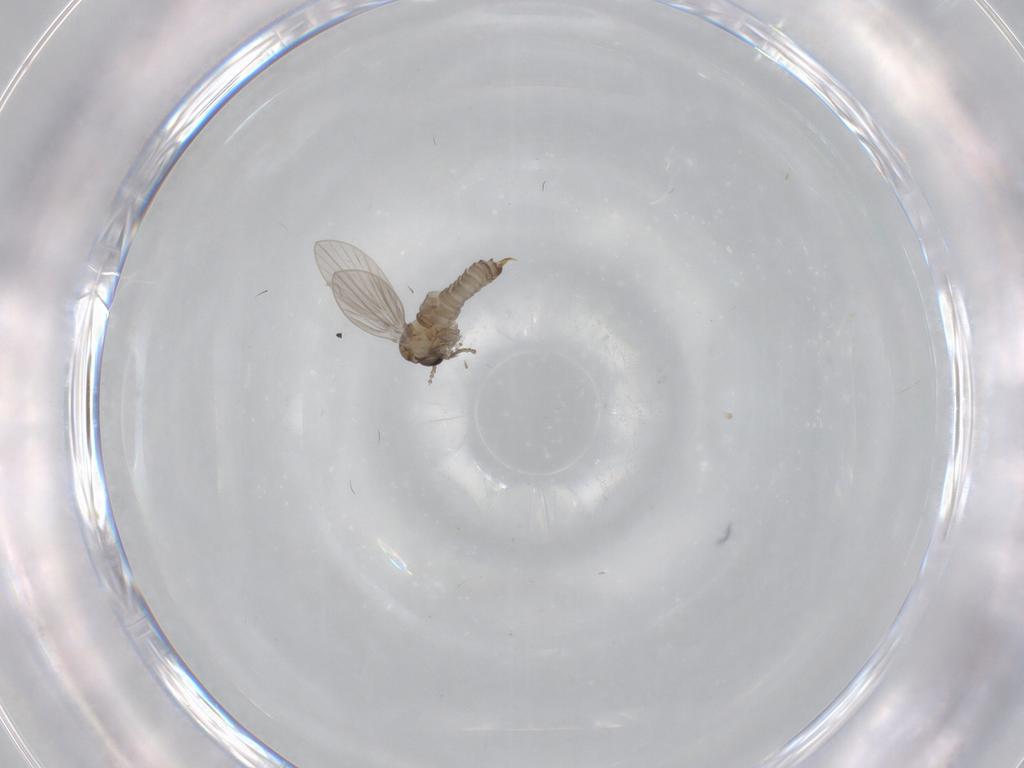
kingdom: Animalia
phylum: Arthropoda
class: Insecta
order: Diptera
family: Psychodidae
